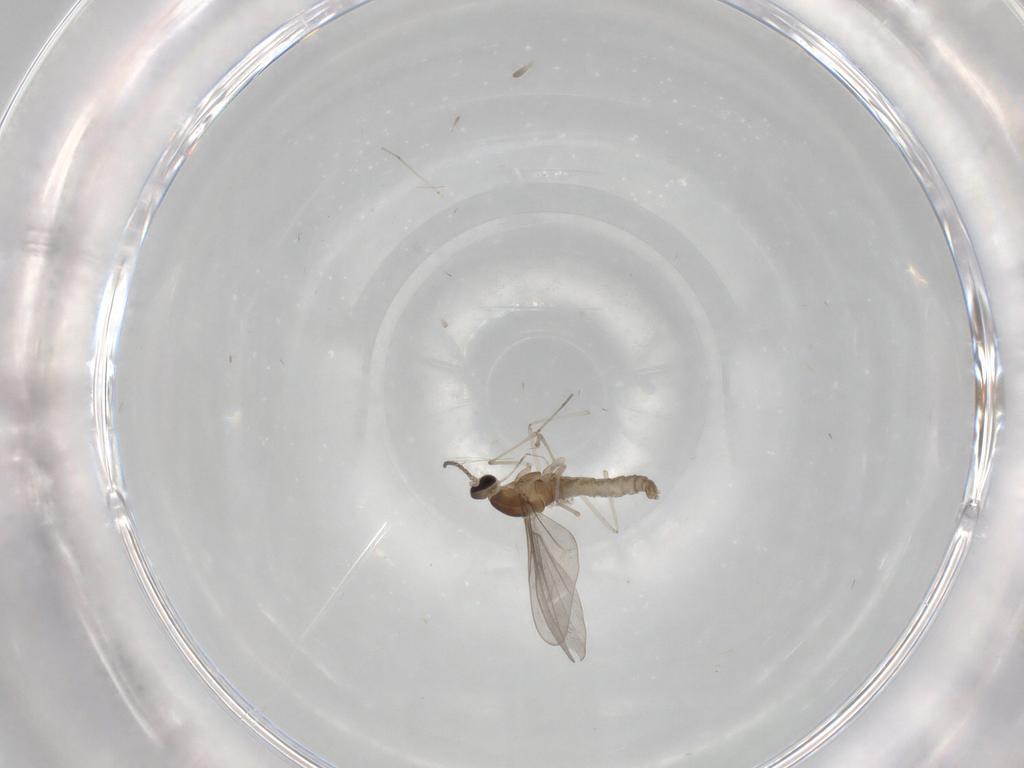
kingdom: Animalia
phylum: Arthropoda
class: Insecta
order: Diptera
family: Cecidomyiidae
